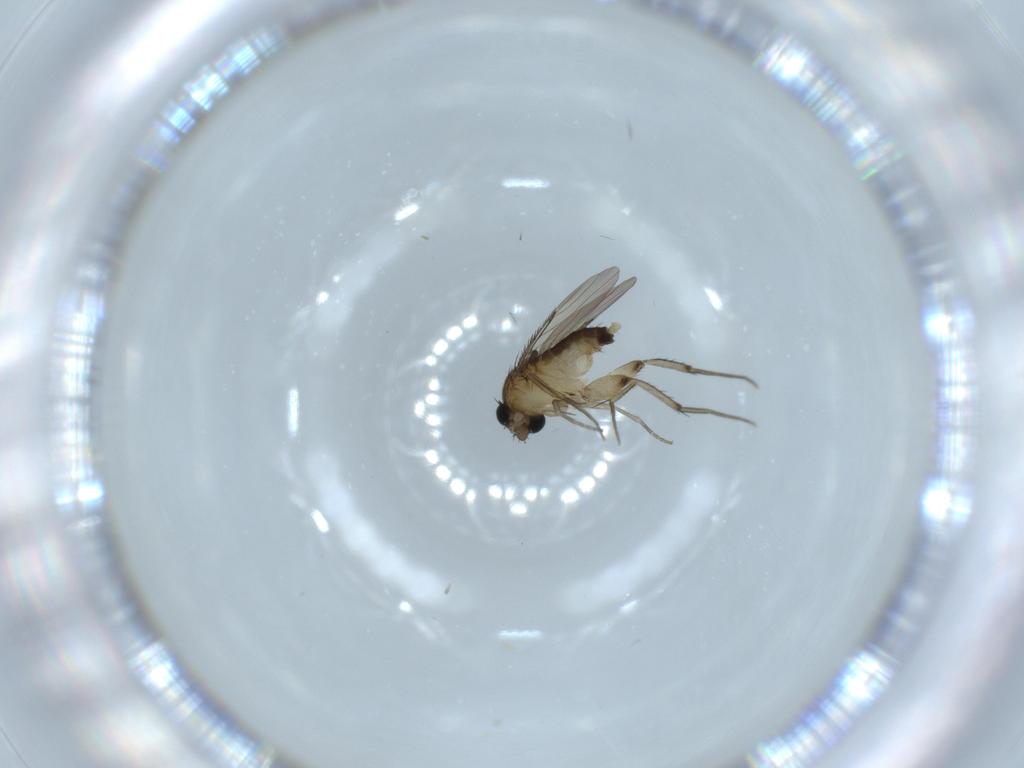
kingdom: Animalia
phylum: Arthropoda
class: Insecta
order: Diptera
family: Phoridae
